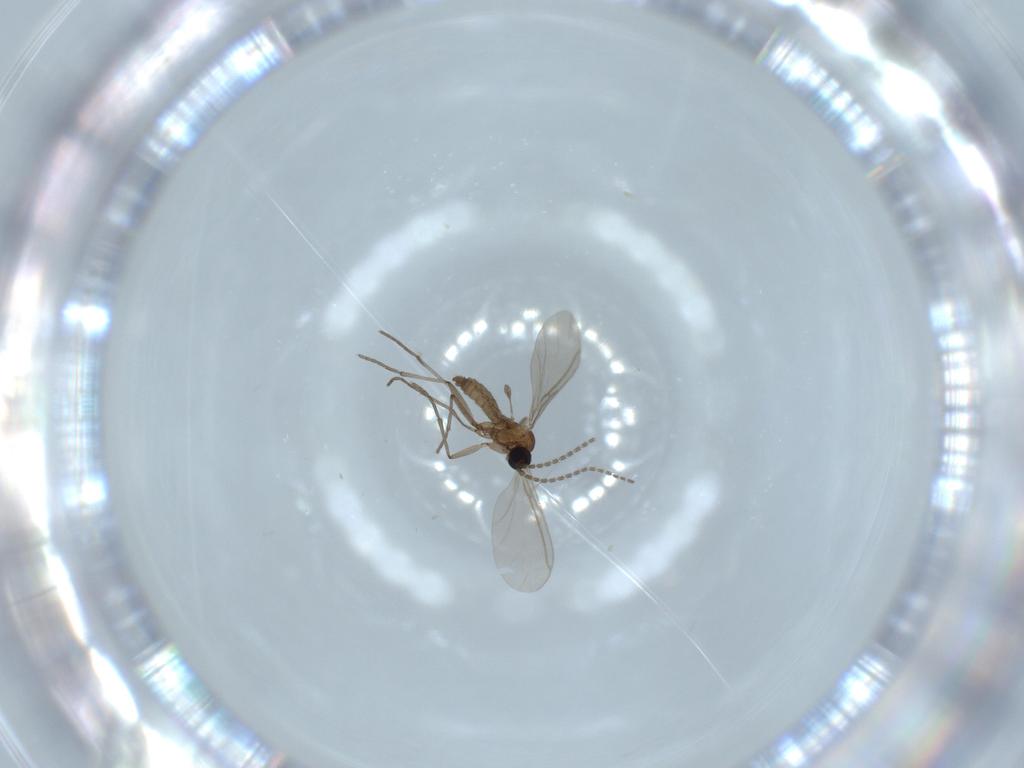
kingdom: Animalia
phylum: Arthropoda
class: Insecta
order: Diptera
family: Sciaridae
